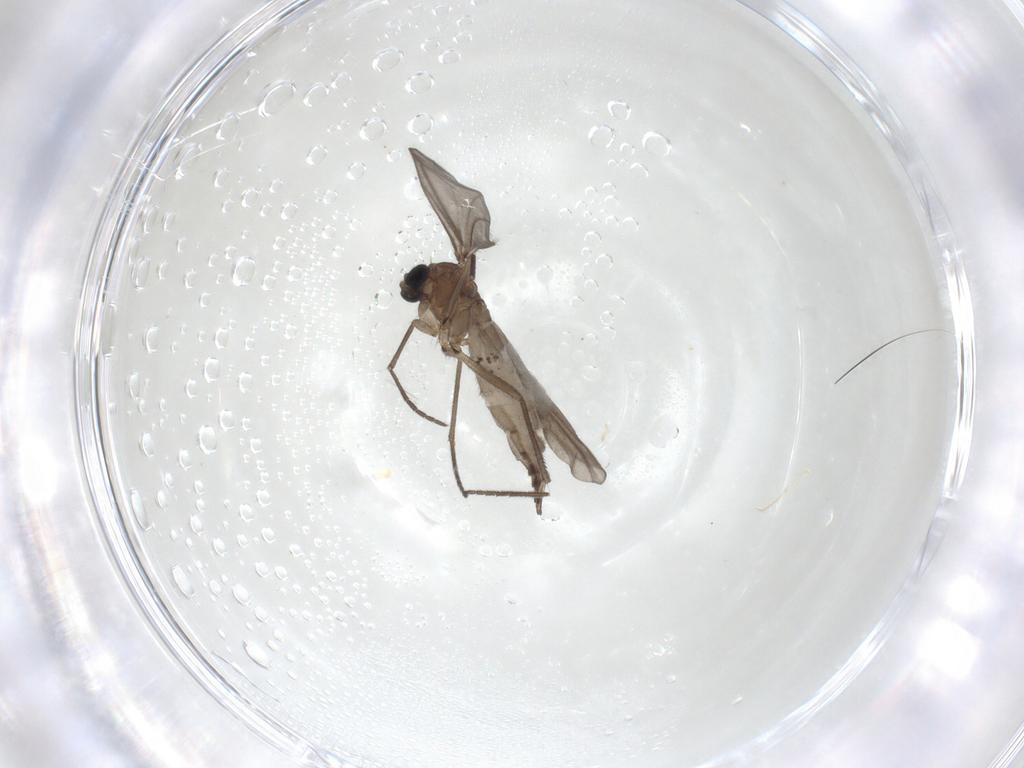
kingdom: Animalia
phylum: Arthropoda
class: Insecta
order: Diptera
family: Sciaridae
